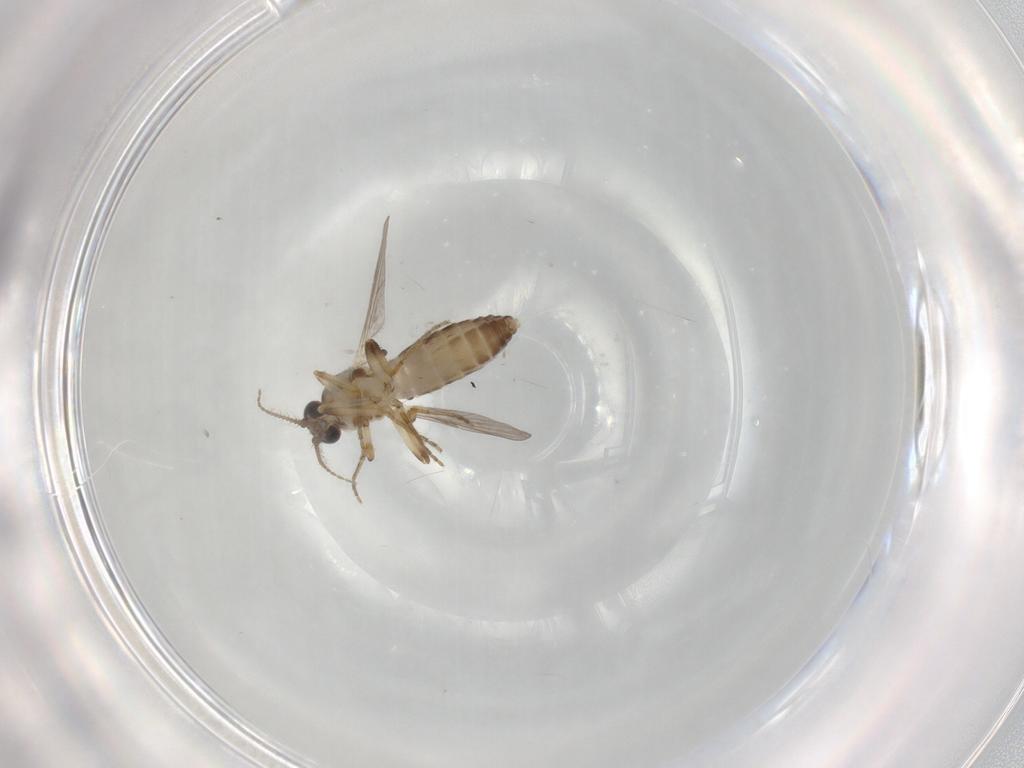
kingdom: Animalia
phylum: Arthropoda
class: Insecta
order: Diptera
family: Ceratopogonidae
